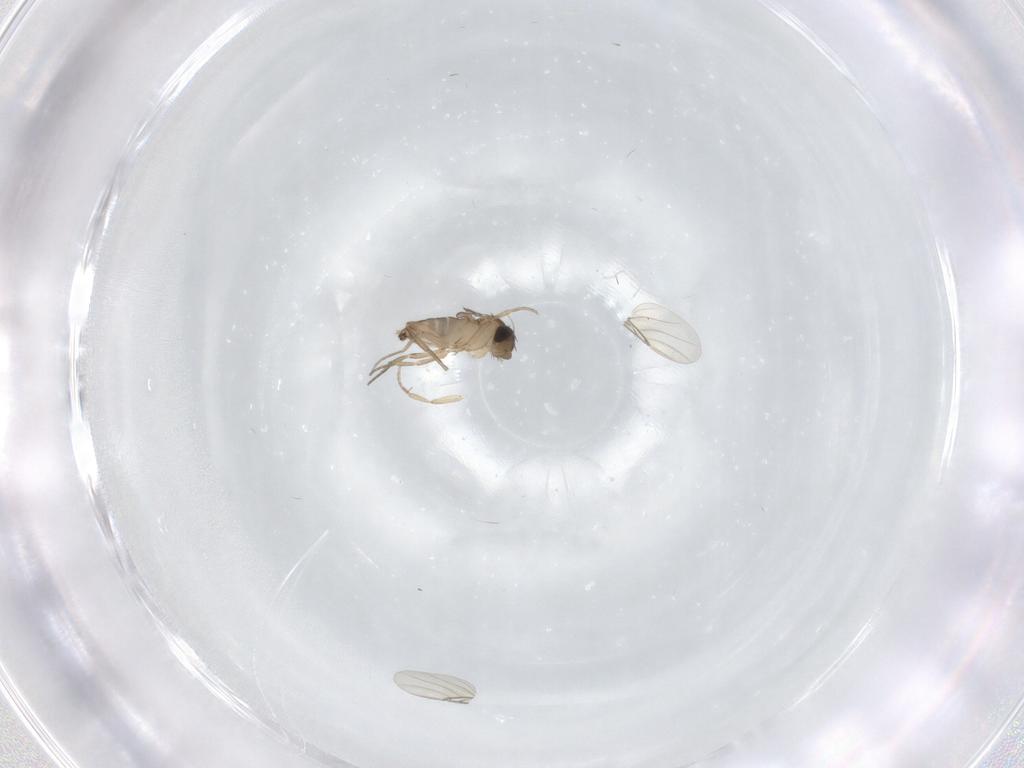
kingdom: Animalia
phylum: Arthropoda
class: Insecta
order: Diptera
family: Phoridae
